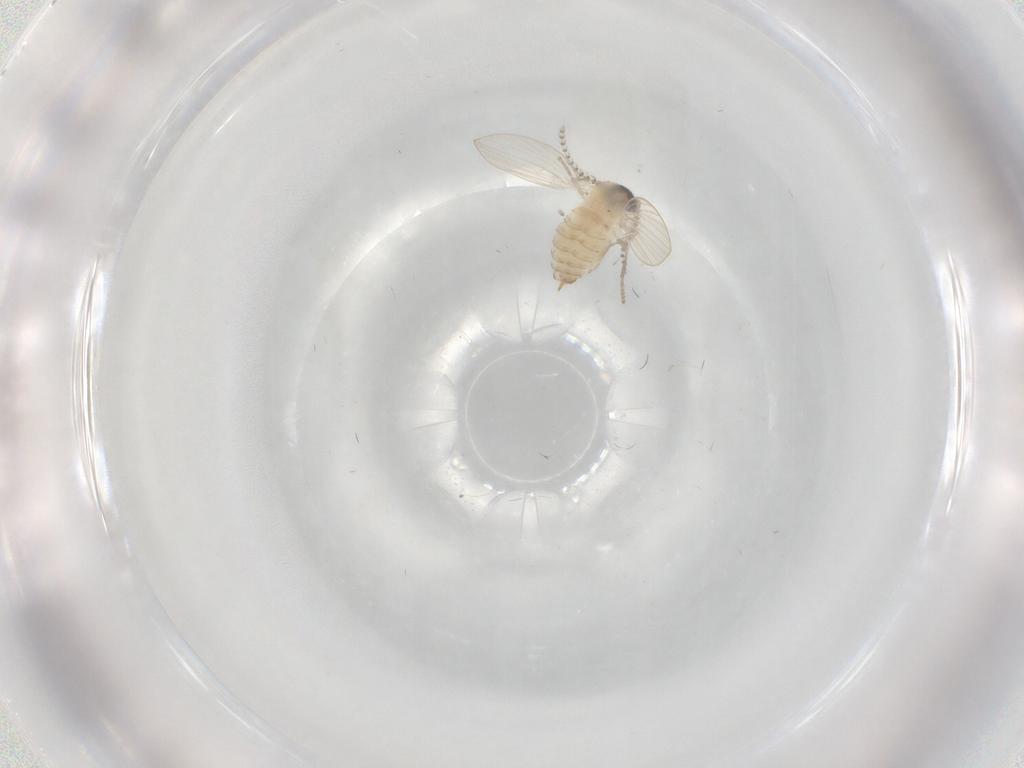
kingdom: Animalia
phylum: Arthropoda
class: Insecta
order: Diptera
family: Psychodidae
